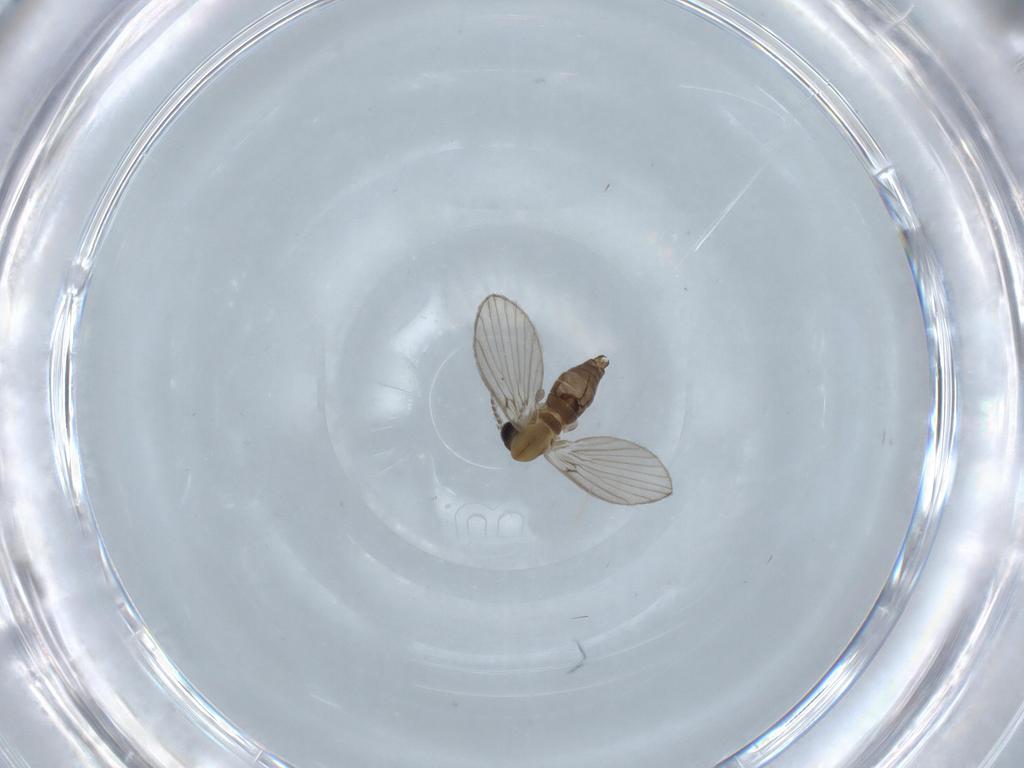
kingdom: Animalia
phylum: Arthropoda
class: Insecta
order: Diptera
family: Psychodidae
